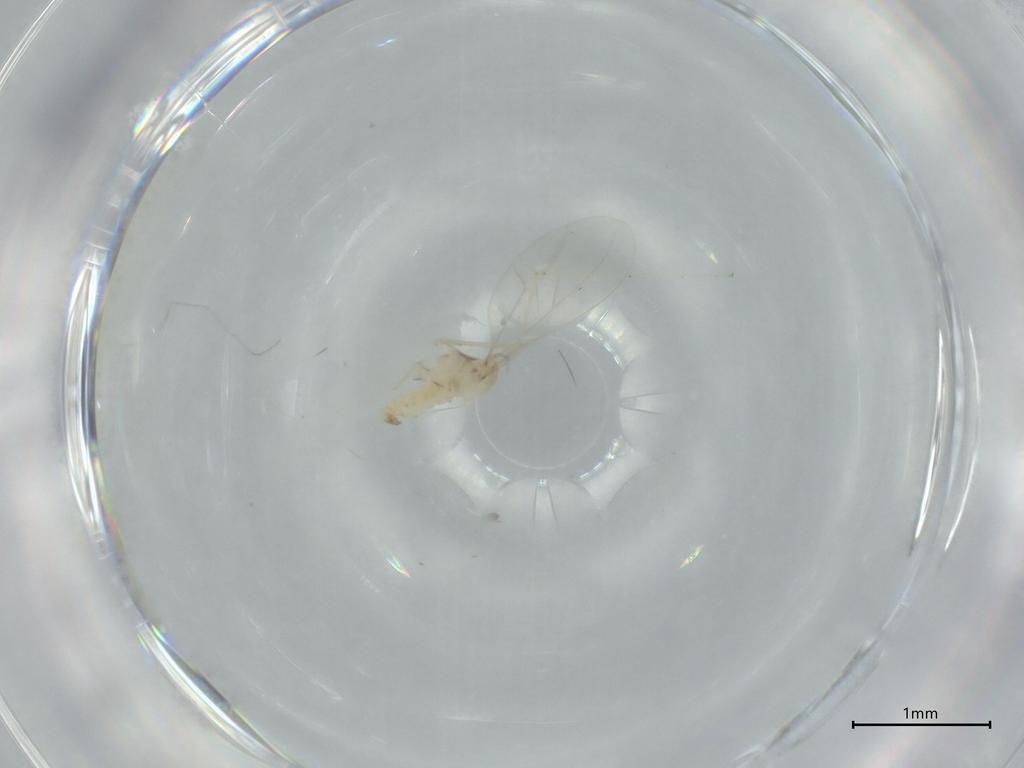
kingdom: Animalia
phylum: Arthropoda
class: Insecta
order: Diptera
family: Cecidomyiidae
